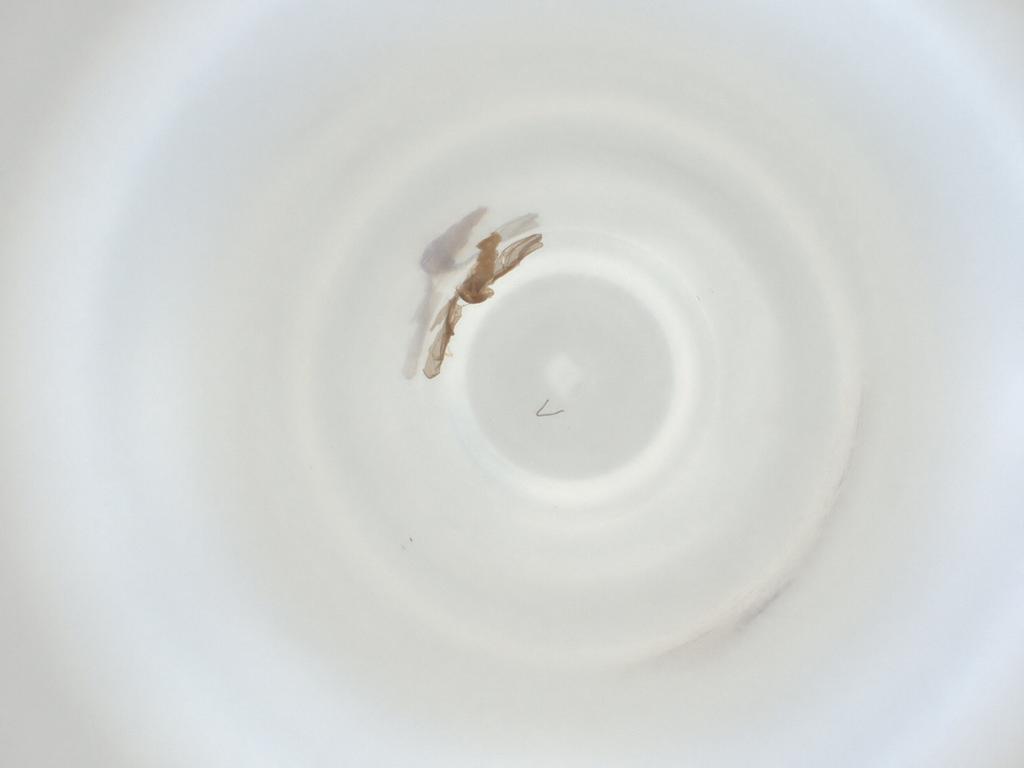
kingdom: Animalia
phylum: Arthropoda
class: Insecta
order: Diptera
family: Cecidomyiidae
